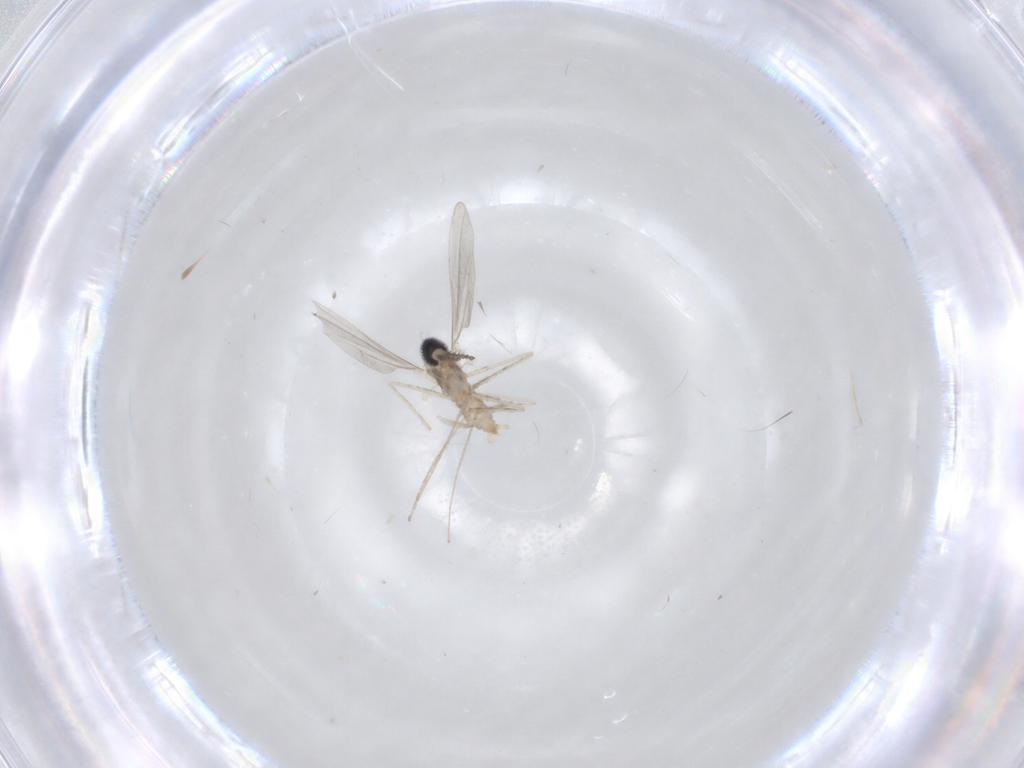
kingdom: Animalia
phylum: Arthropoda
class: Insecta
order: Diptera
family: Cecidomyiidae
